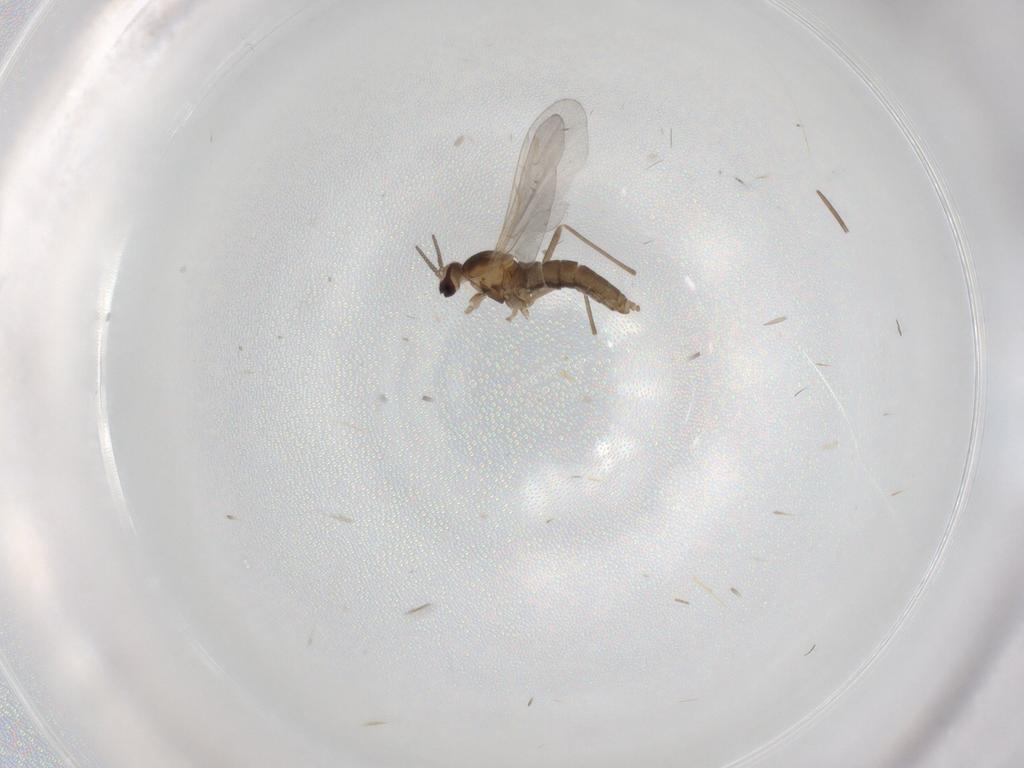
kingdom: Animalia
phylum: Arthropoda
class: Insecta
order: Diptera
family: Cecidomyiidae
